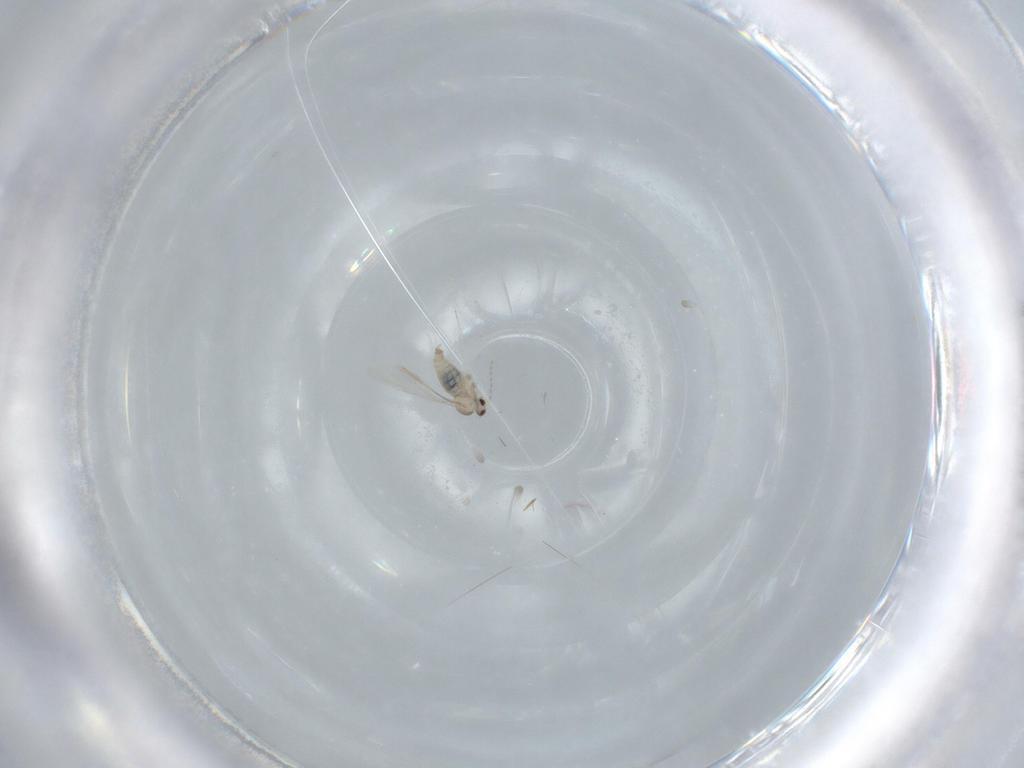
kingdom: Animalia
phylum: Arthropoda
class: Insecta
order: Diptera
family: Cecidomyiidae
